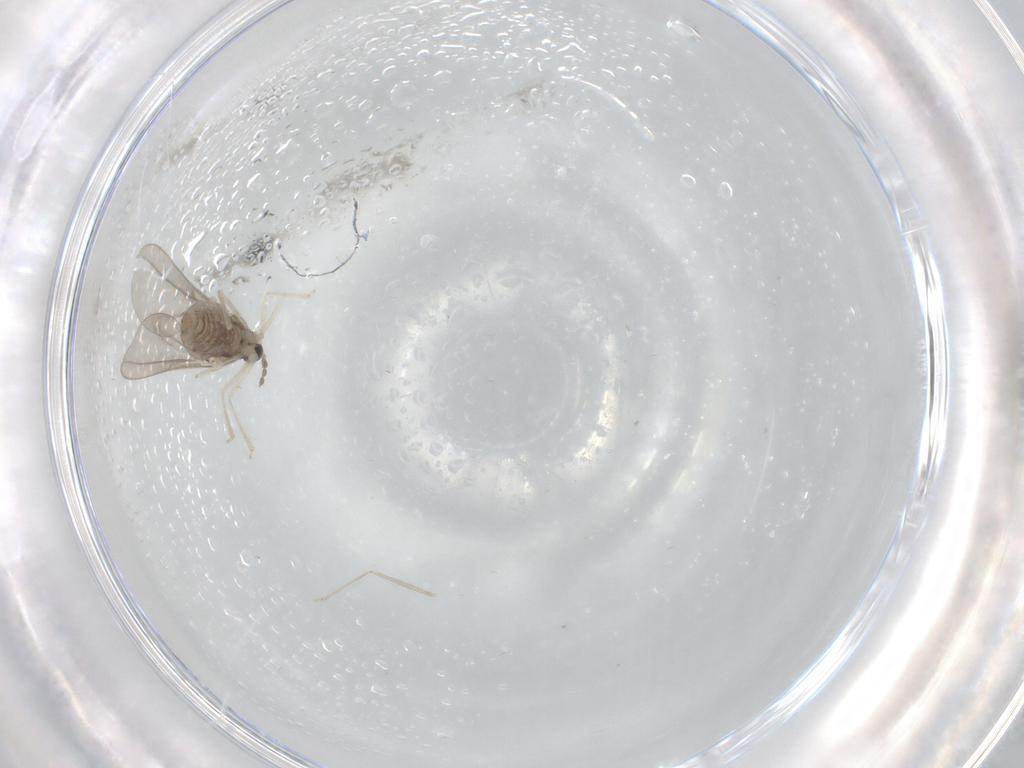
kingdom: Animalia
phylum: Arthropoda
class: Insecta
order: Diptera
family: Cecidomyiidae
